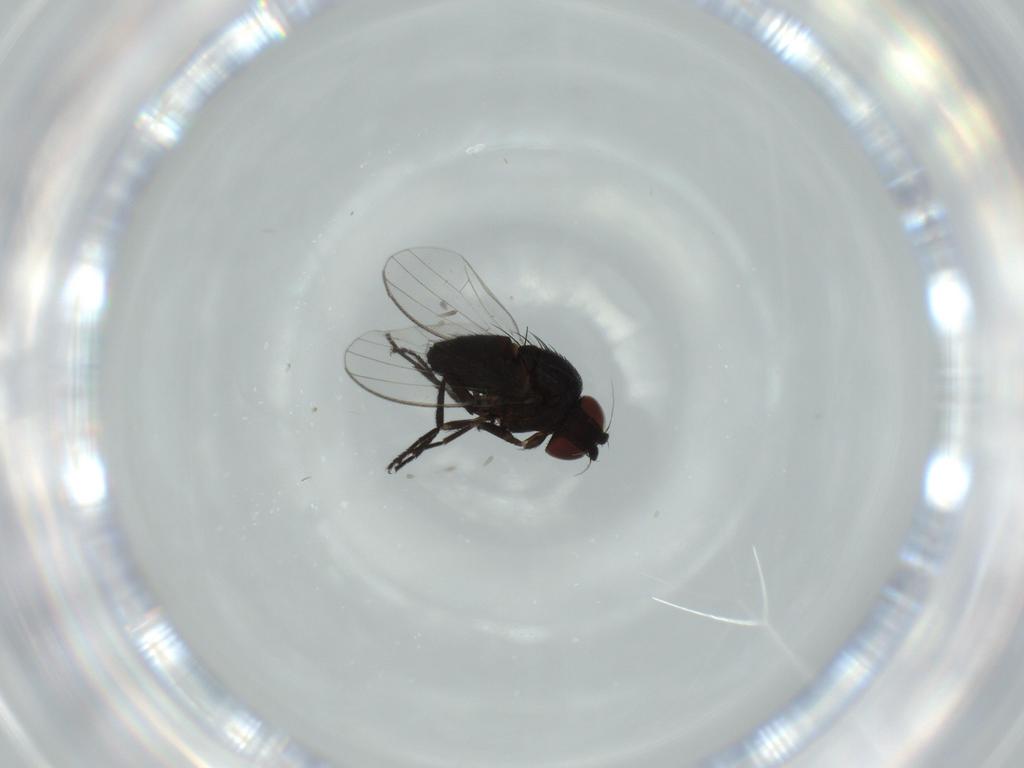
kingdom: Animalia
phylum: Arthropoda
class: Insecta
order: Diptera
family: Milichiidae
